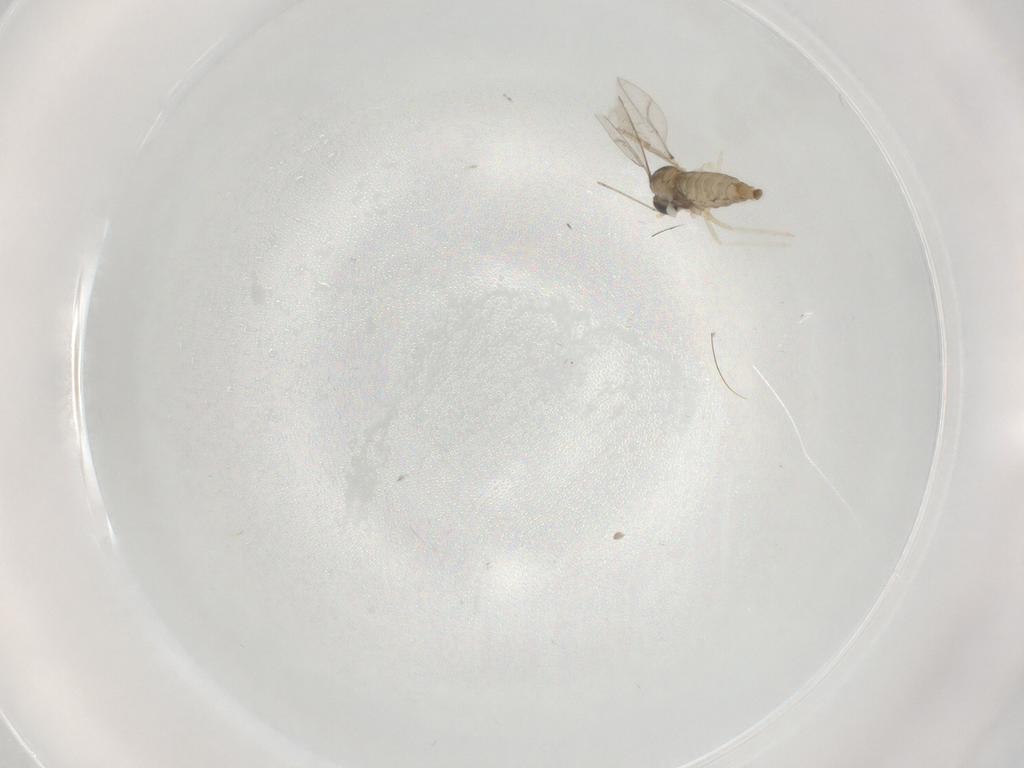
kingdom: Animalia
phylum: Arthropoda
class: Insecta
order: Diptera
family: Cecidomyiidae
